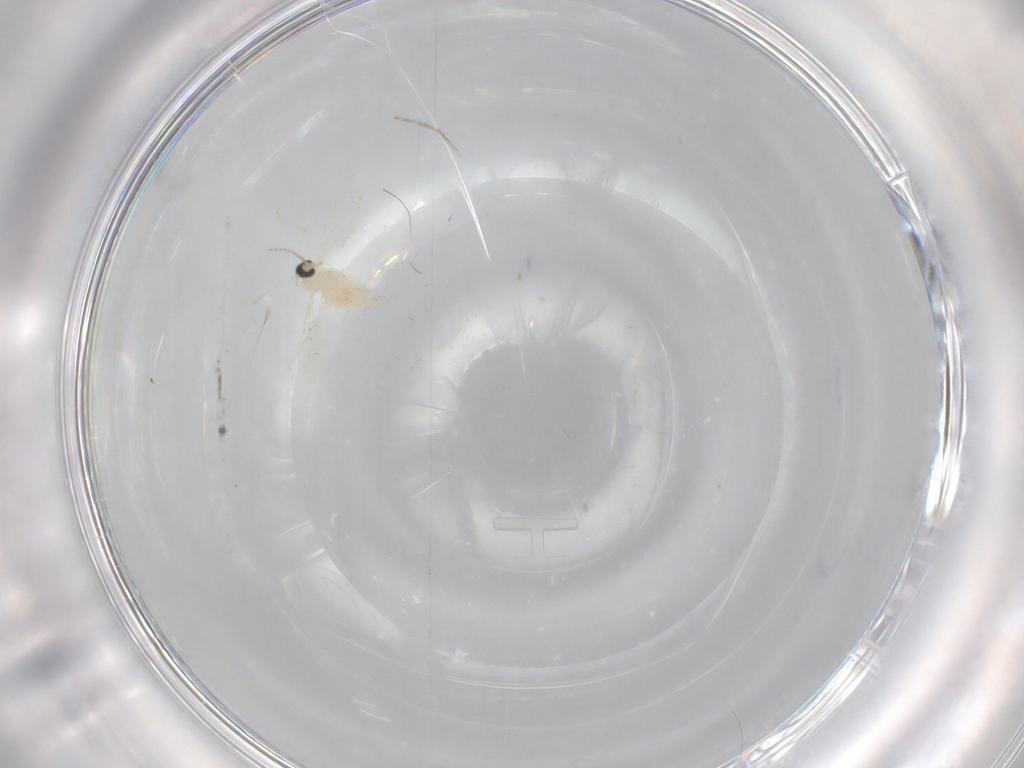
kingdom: Animalia
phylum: Arthropoda
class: Insecta
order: Diptera
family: Cecidomyiidae
